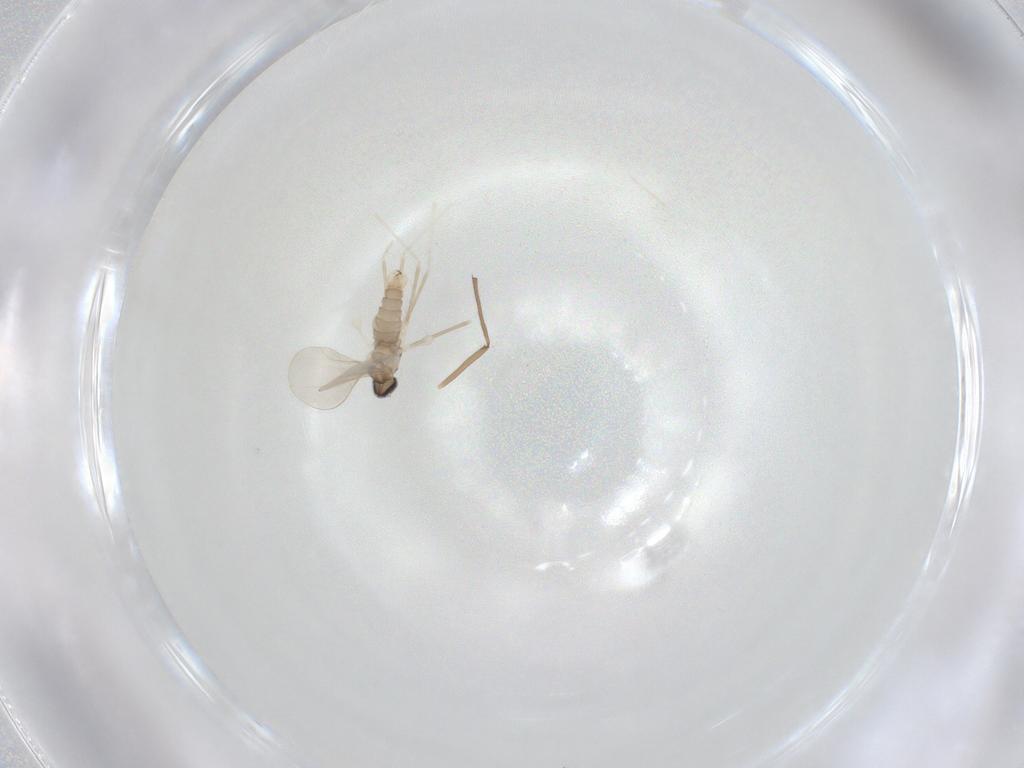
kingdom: Animalia
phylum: Arthropoda
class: Insecta
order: Diptera
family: Cecidomyiidae
